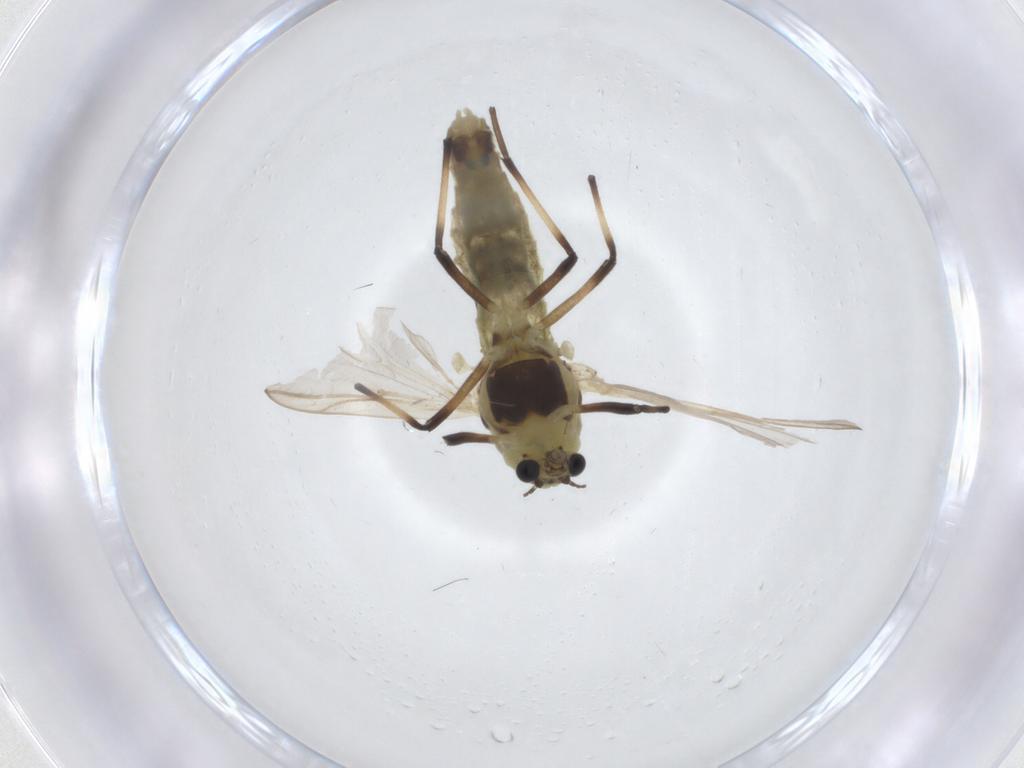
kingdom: Animalia
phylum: Arthropoda
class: Insecta
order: Diptera
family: Chironomidae
